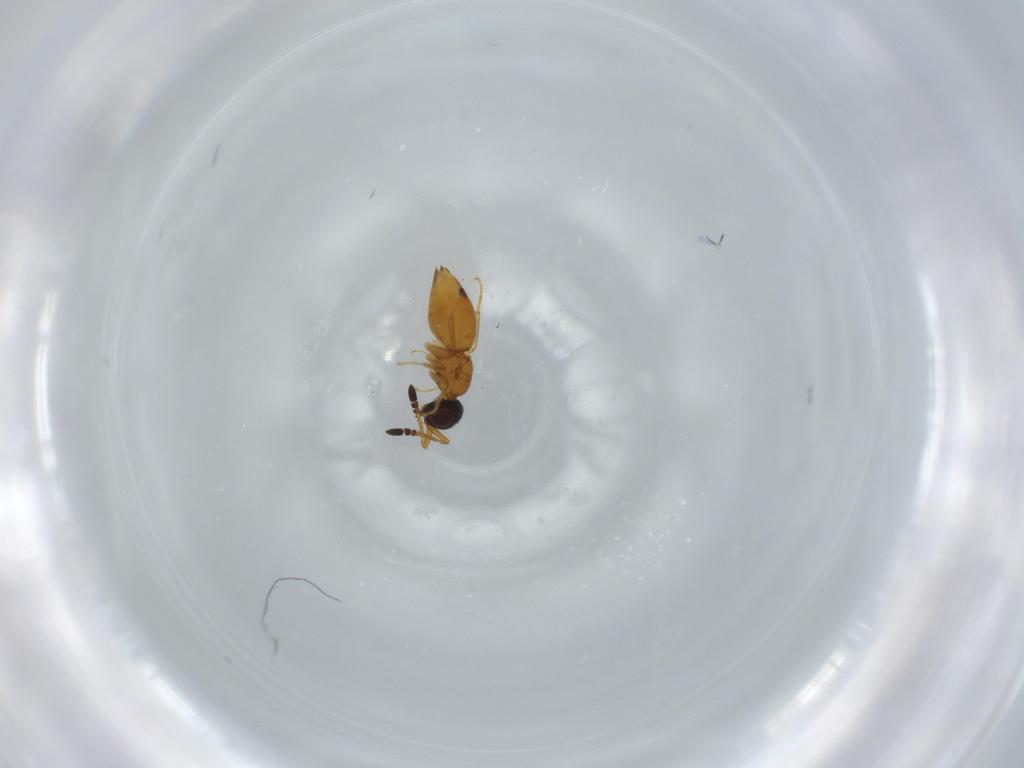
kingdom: Animalia
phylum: Arthropoda
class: Insecta
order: Hymenoptera
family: Ceraphronidae
